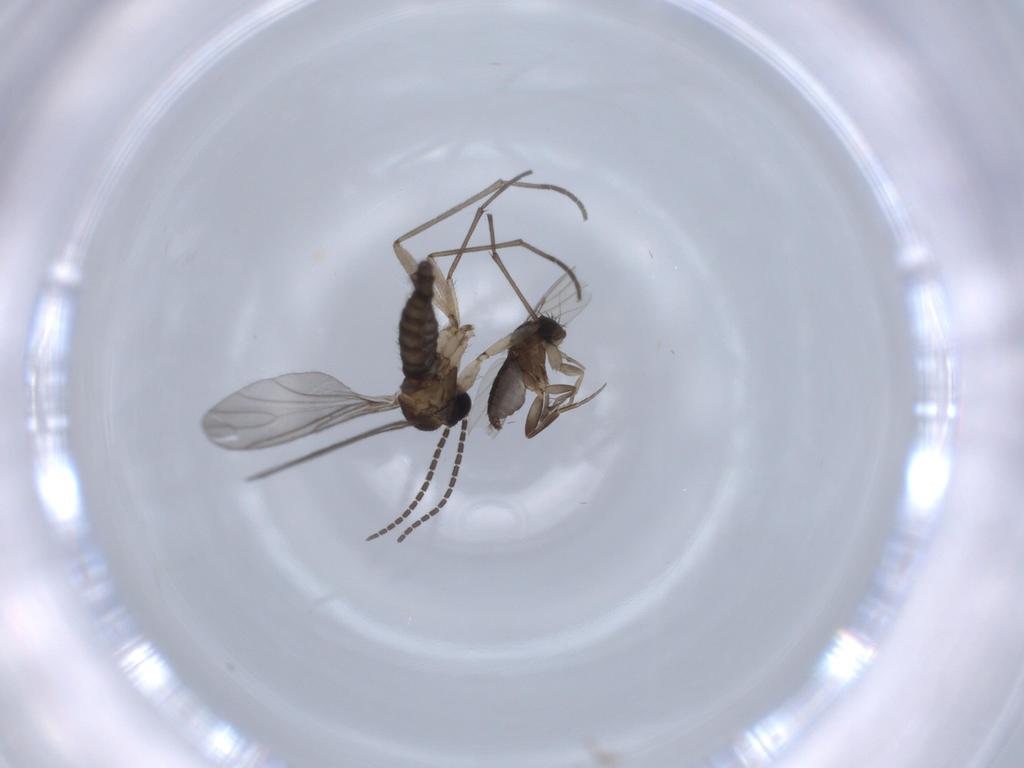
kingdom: Animalia
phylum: Arthropoda
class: Insecta
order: Diptera
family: Phoridae
